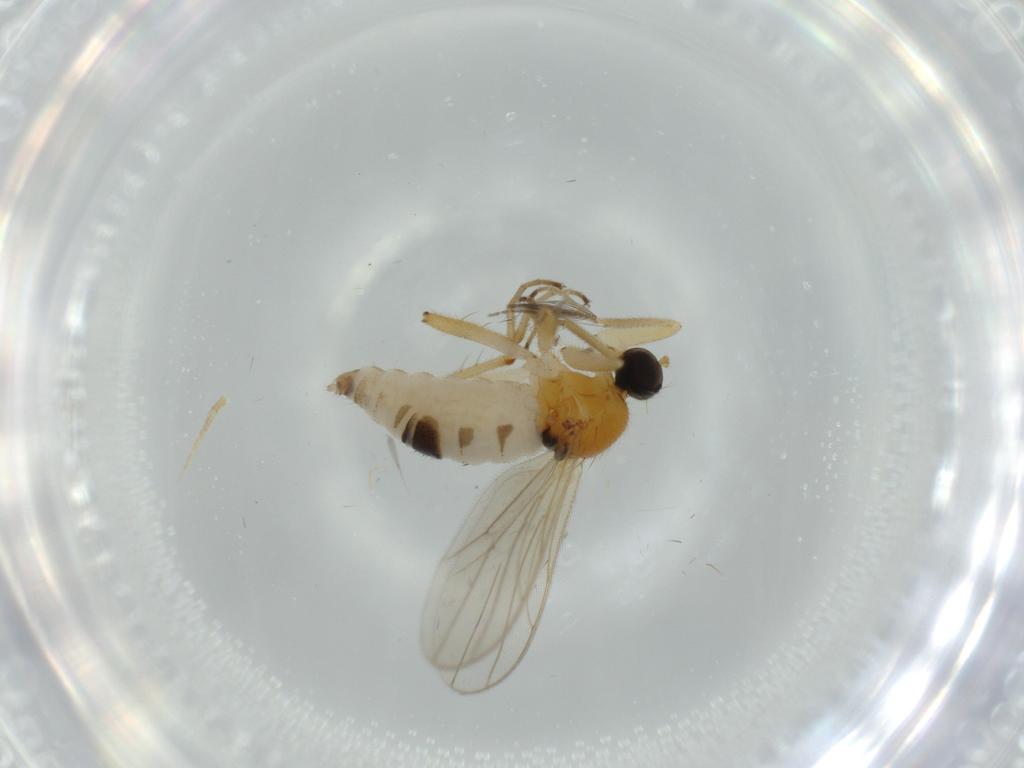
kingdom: Animalia
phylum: Arthropoda
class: Insecta
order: Diptera
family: Hybotidae
